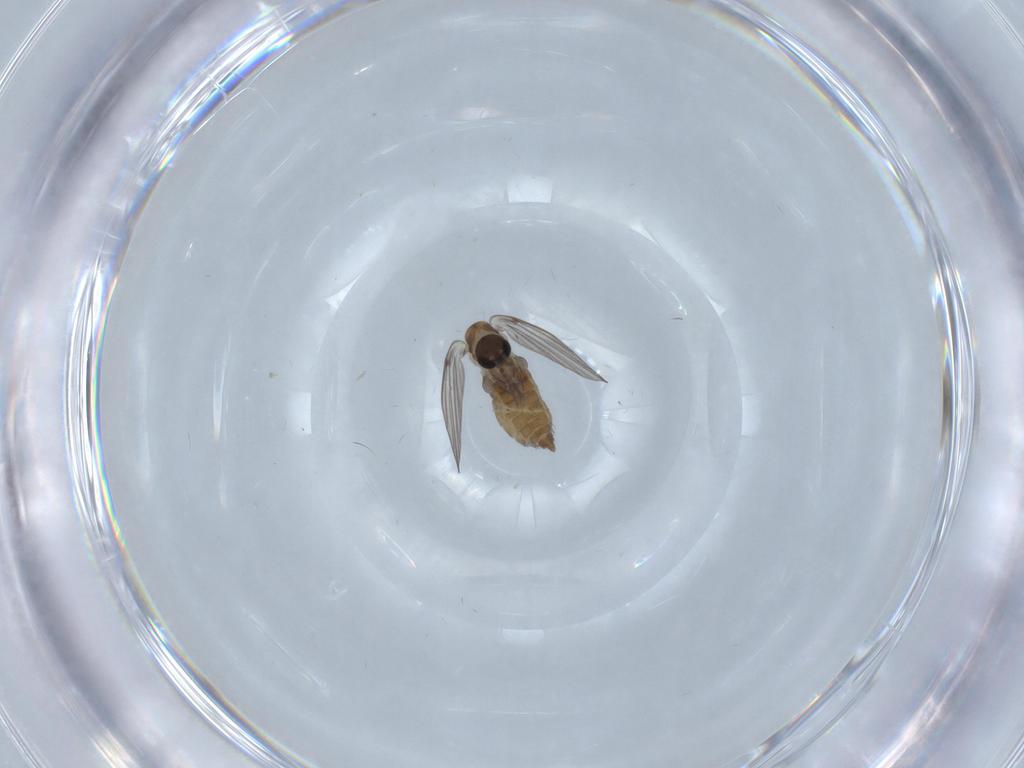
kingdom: Animalia
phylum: Arthropoda
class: Insecta
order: Diptera
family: Psychodidae
